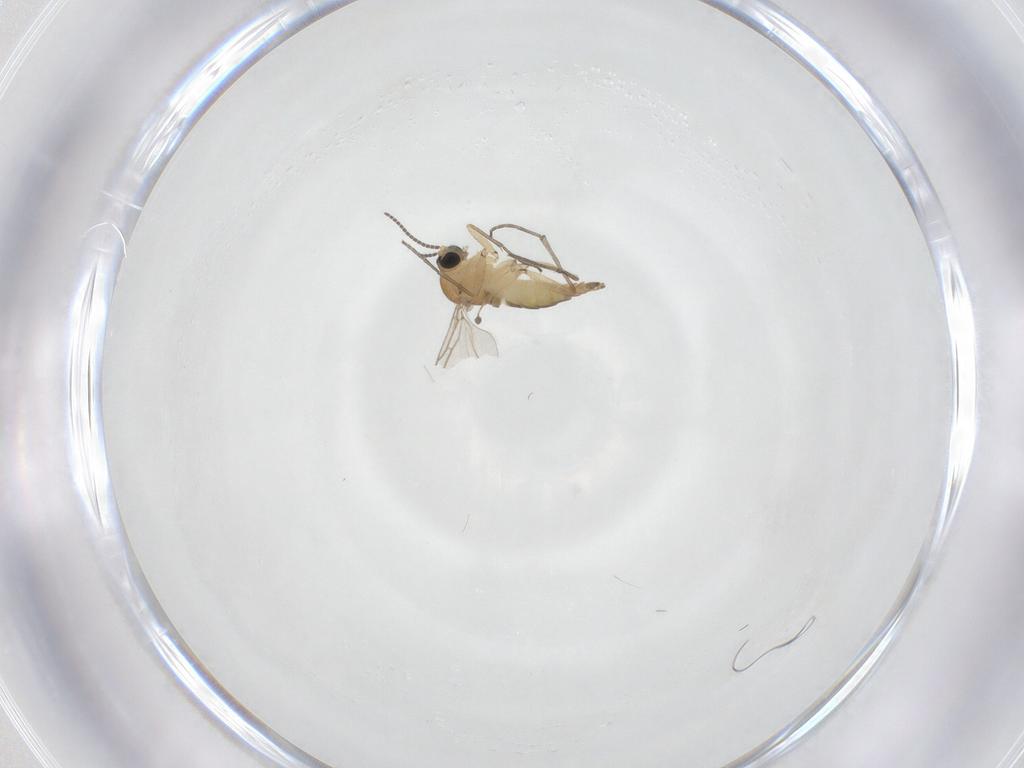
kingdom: Animalia
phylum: Arthropoda
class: Insecta
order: Diptera
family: Sciaridae
